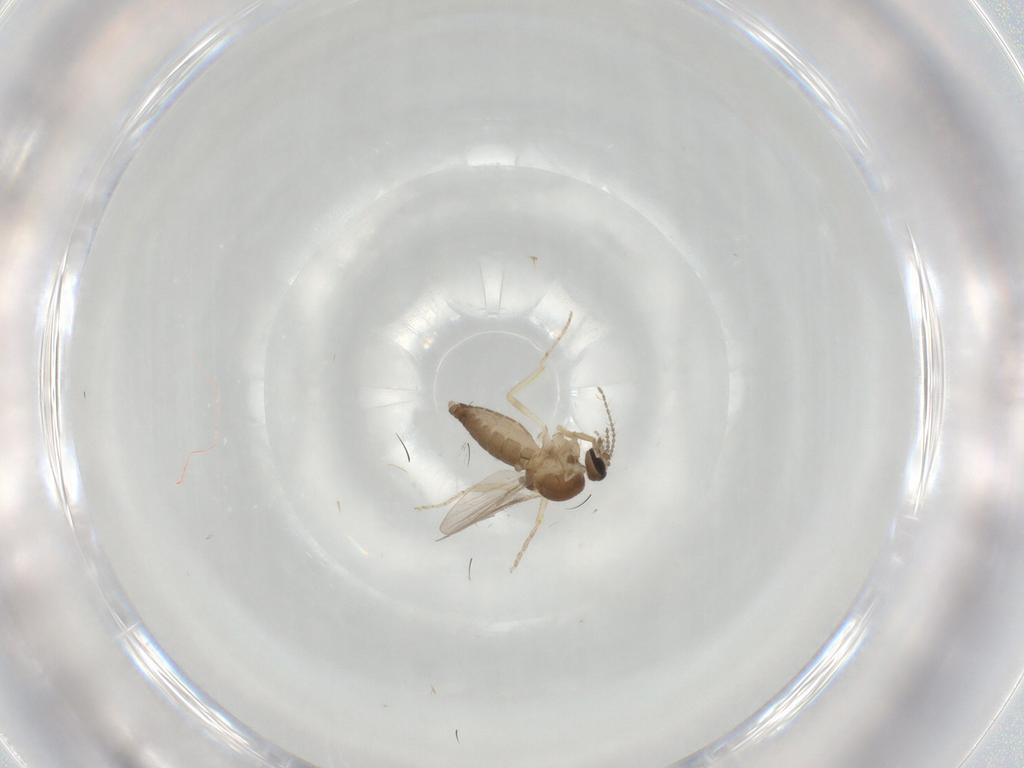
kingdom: Animalia
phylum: Arthropoda
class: Insecta
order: Diptera
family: Ceratopogonidae
